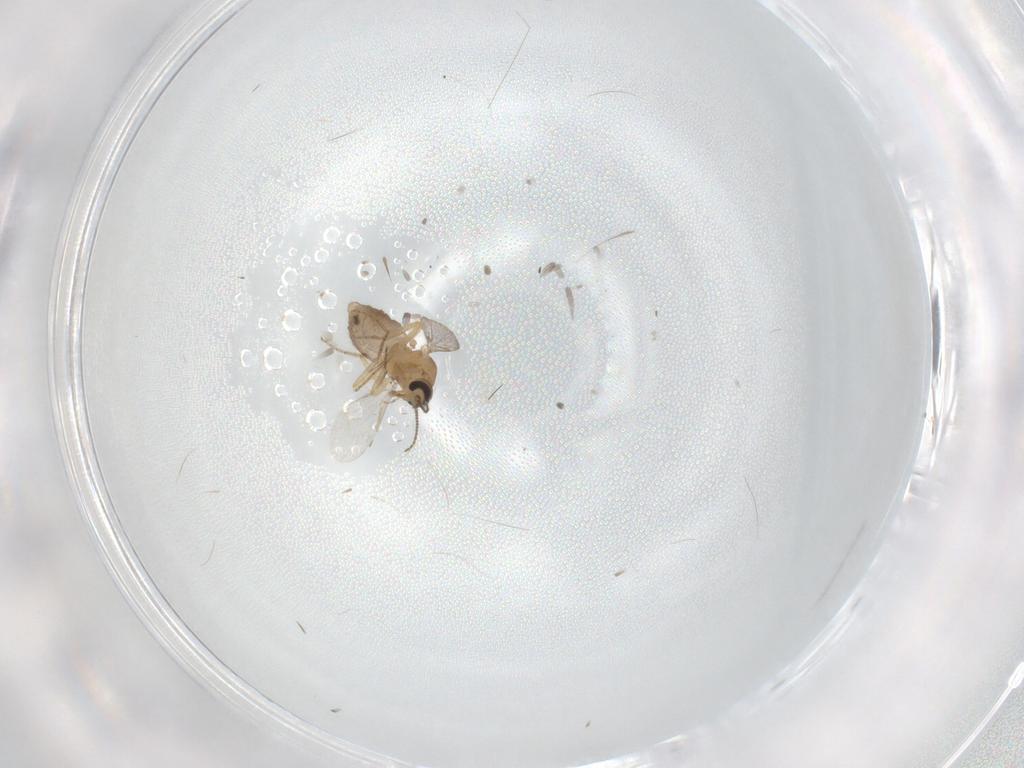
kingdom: Animalia
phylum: Arthropoda
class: Insecta
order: Diptera
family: Ceratopogonidae
